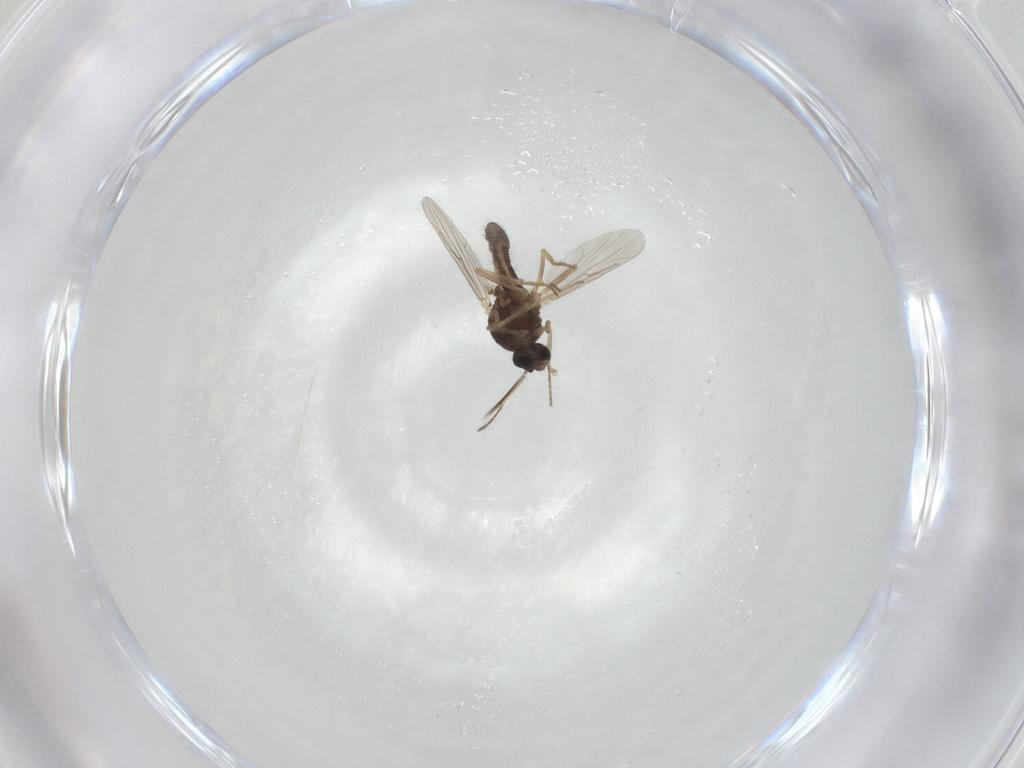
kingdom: Animalia
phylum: Arthropoda
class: Insecta
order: Diptera
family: Ceratopogonidae
